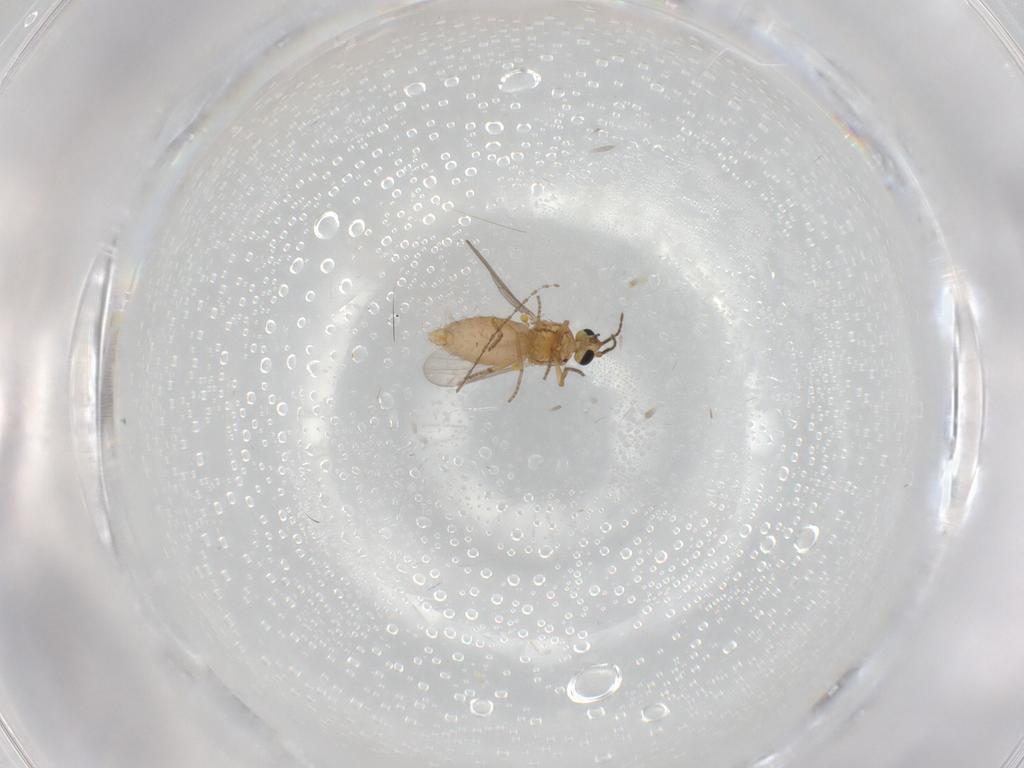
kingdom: Animalia
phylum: Arthropoda
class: Insecta
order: Diptera
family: Ceratopogonidae
